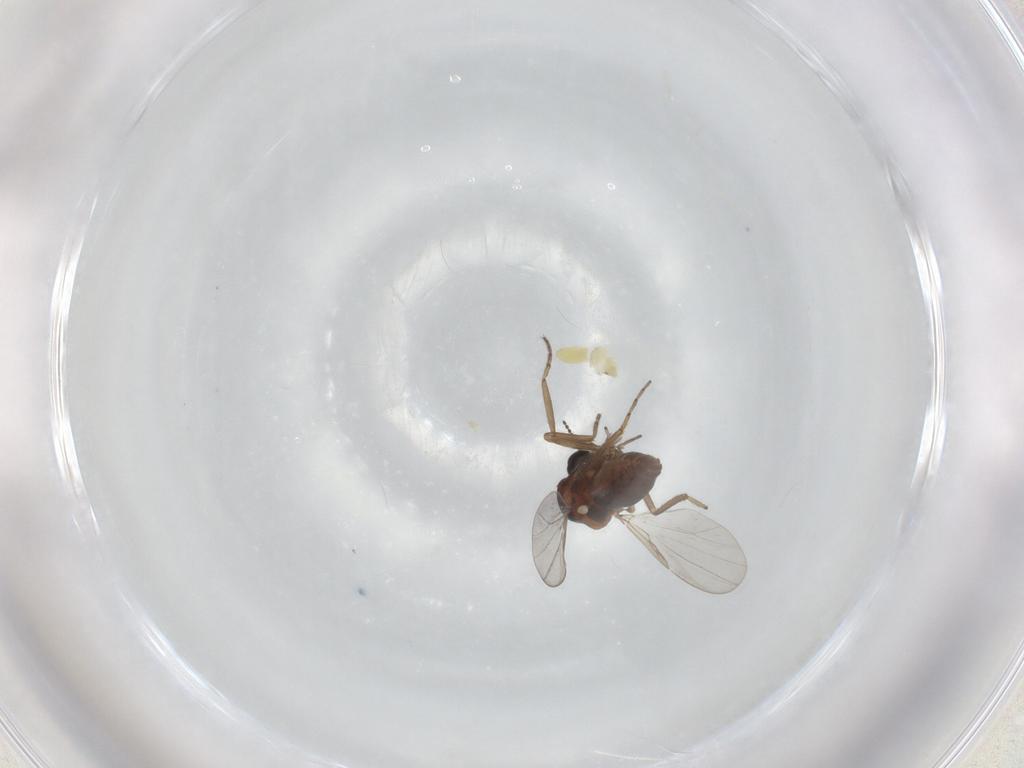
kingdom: Animalia
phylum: Arthropoda
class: Insecta
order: Diptera
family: Ceratopogonidae
